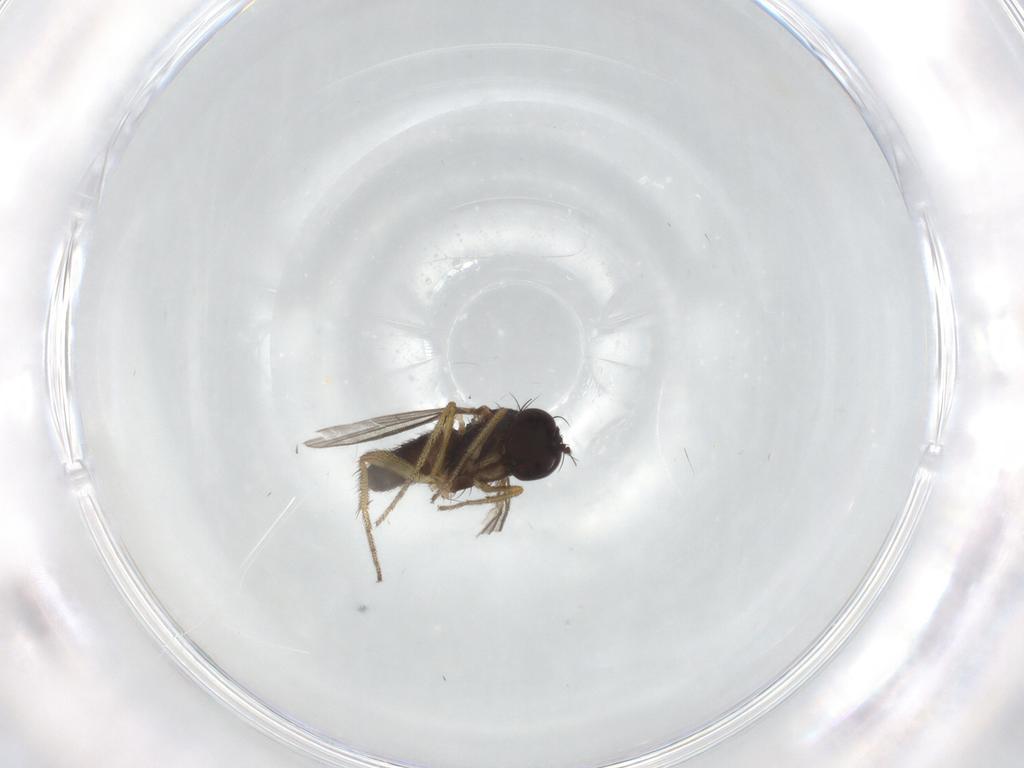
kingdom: Animalia
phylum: Arthropoda
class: Insecta
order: Diptera
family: Dolichopodidae
